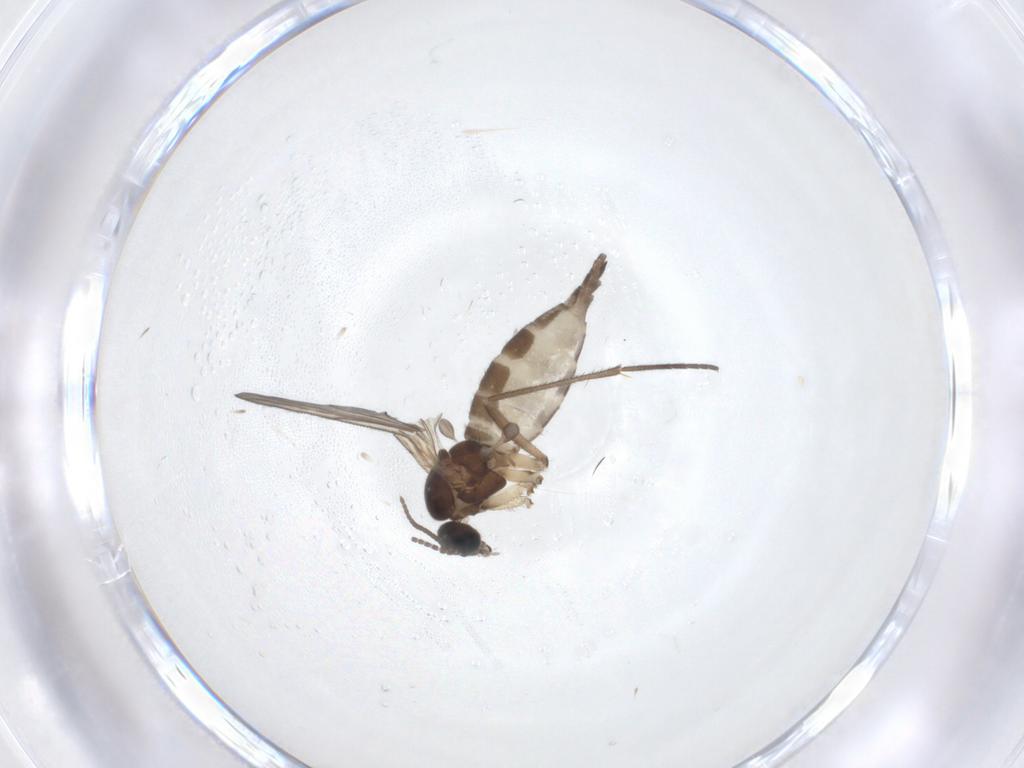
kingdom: Animalia
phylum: Arthropoda
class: Insecta
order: Diptera
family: Sciaridae
